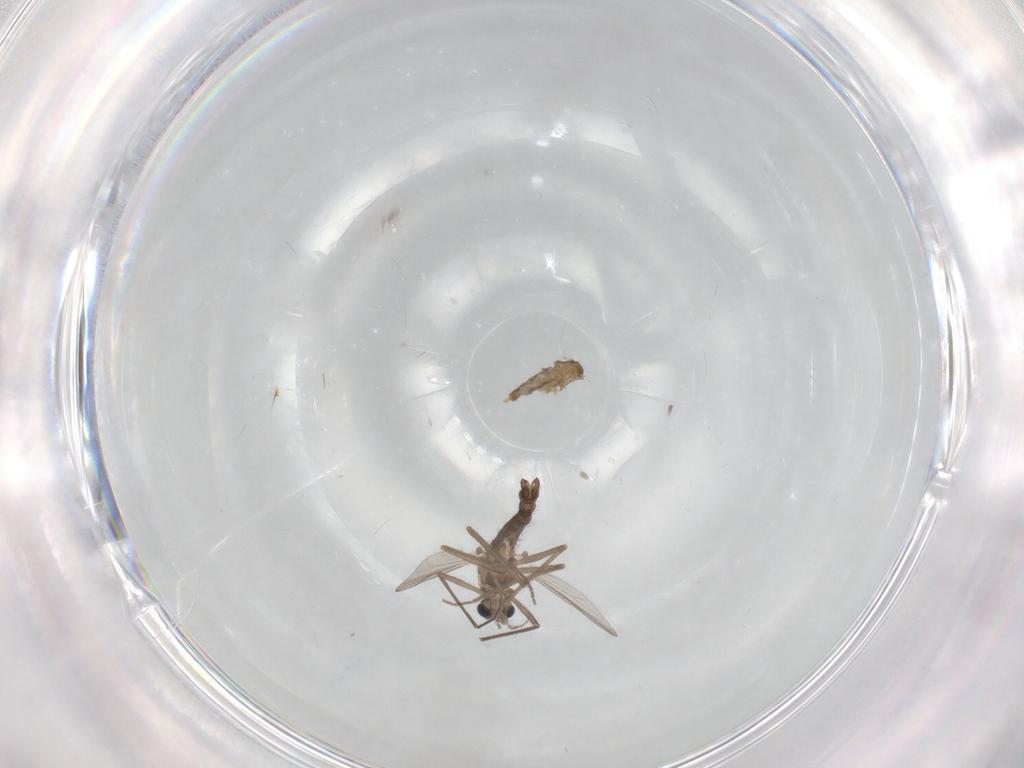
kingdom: Animalia
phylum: Arthropoda
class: Insecta
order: Diptera
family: Chironomidae
